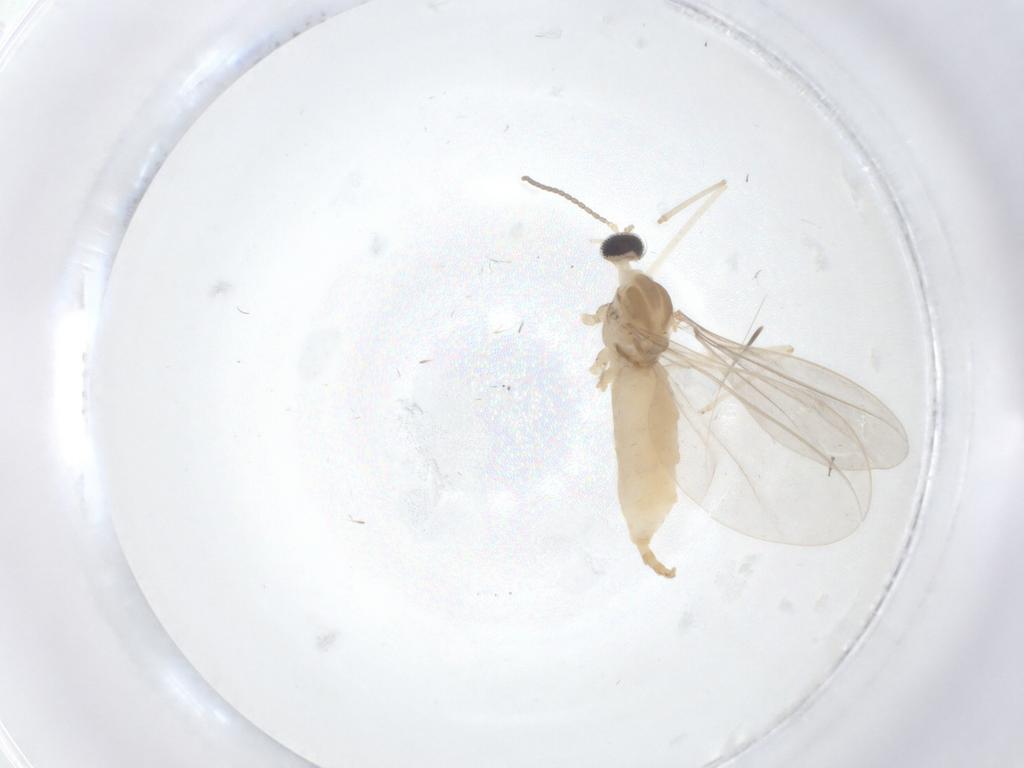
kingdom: Animalia
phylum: Arthropoda
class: Insecta
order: Diptera
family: Cecidomyiidae
